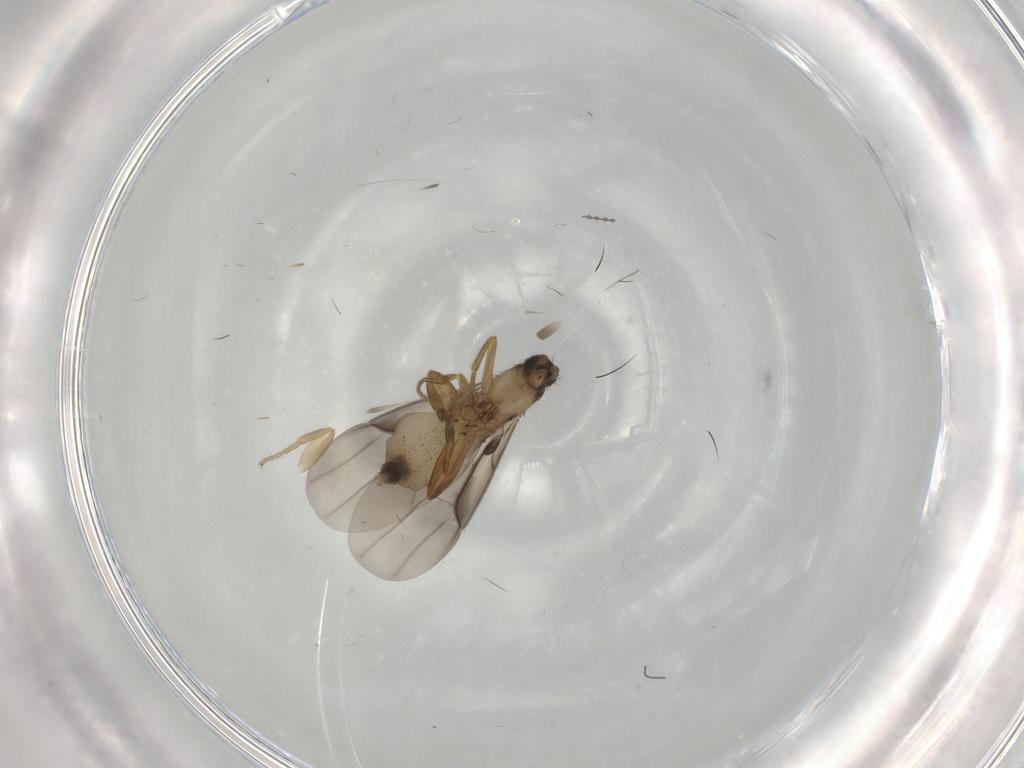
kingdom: Animalia
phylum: Arthropoda
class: Insecta
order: Diptera
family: Phoridae
